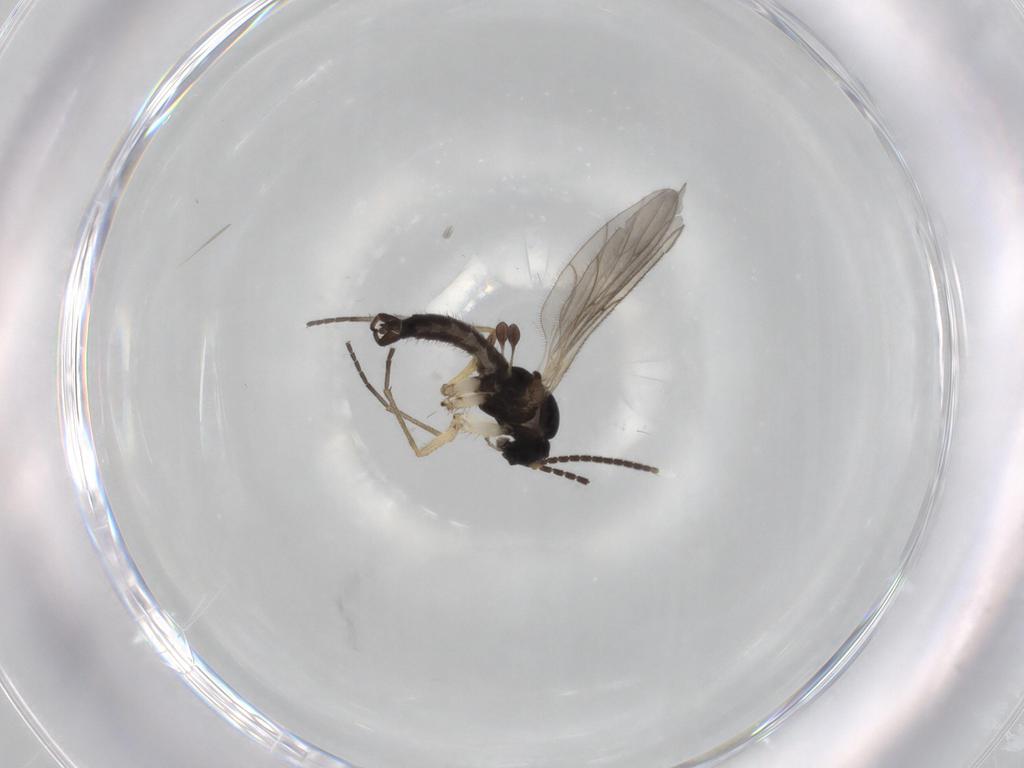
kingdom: Animalia
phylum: Arthropoda
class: Insecta
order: Diptera
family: Sciaridae
